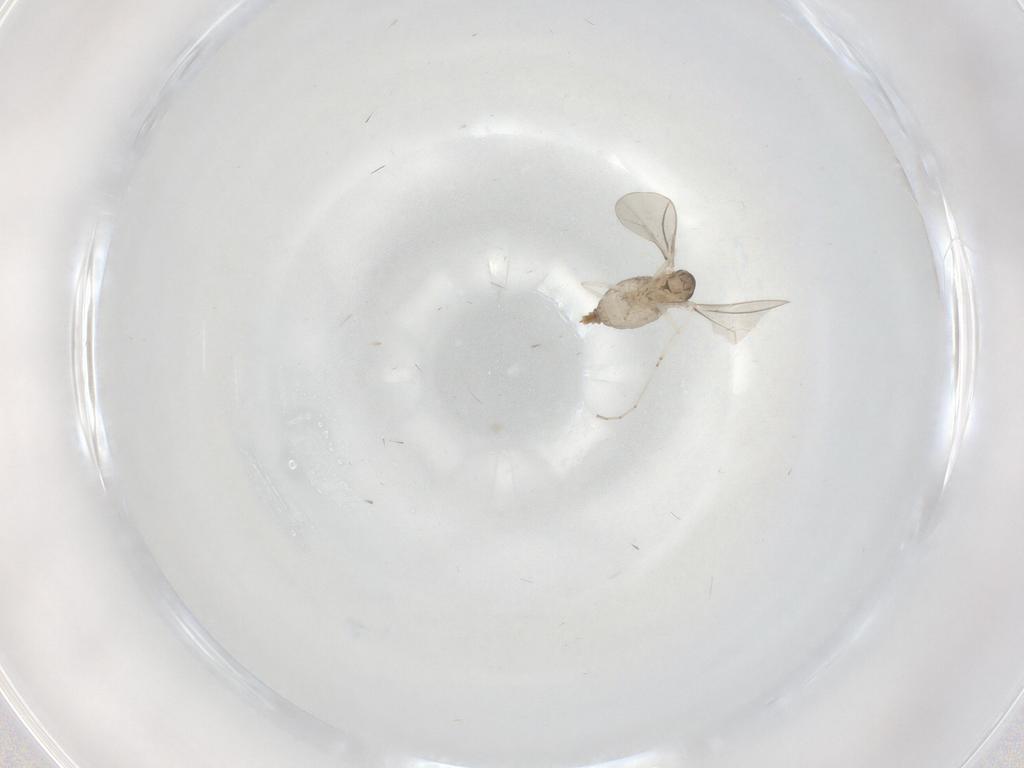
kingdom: Animalia
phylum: Arthropoda
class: Insecta
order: Diptera
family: Cecidomyiidae
